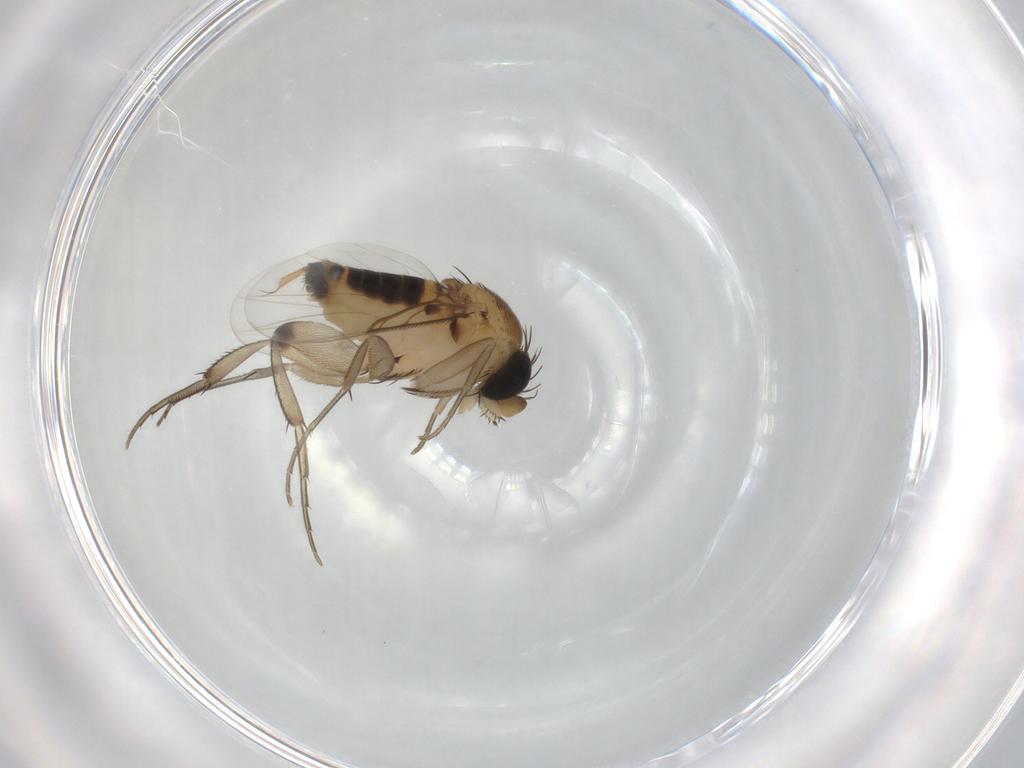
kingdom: Animalia
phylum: Arthropoda
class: Insecta
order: Diptera
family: Phoridae
